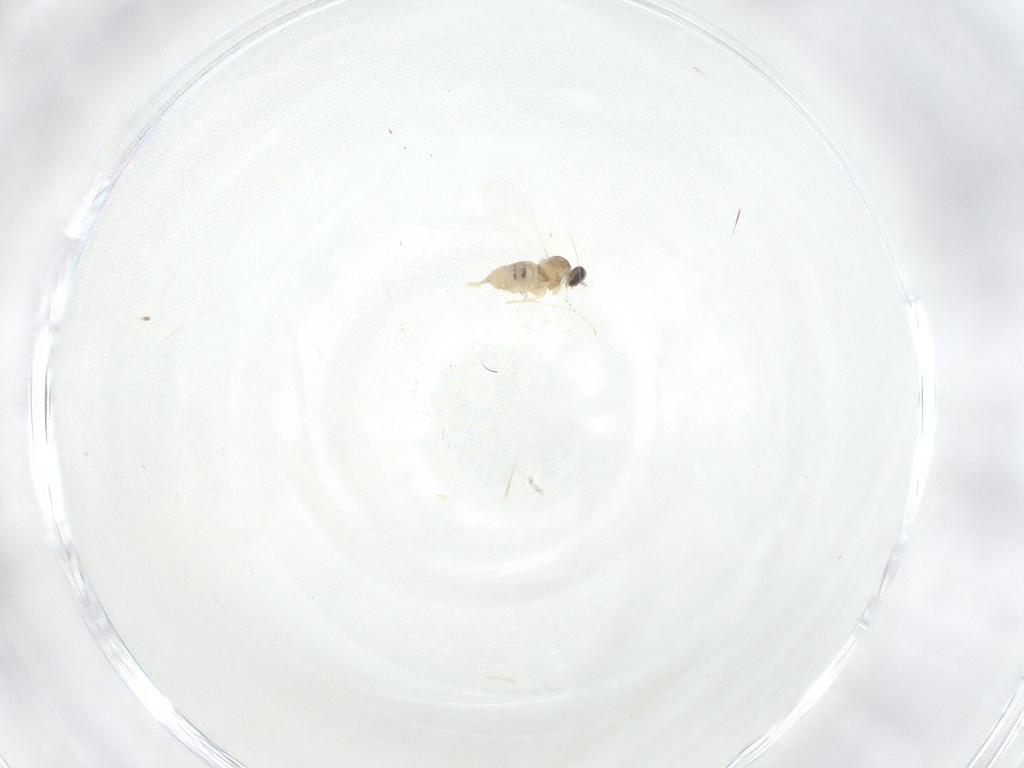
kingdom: Animalia
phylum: Arthropoda
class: Insecta
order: Diptera
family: Cecidomyiidae
